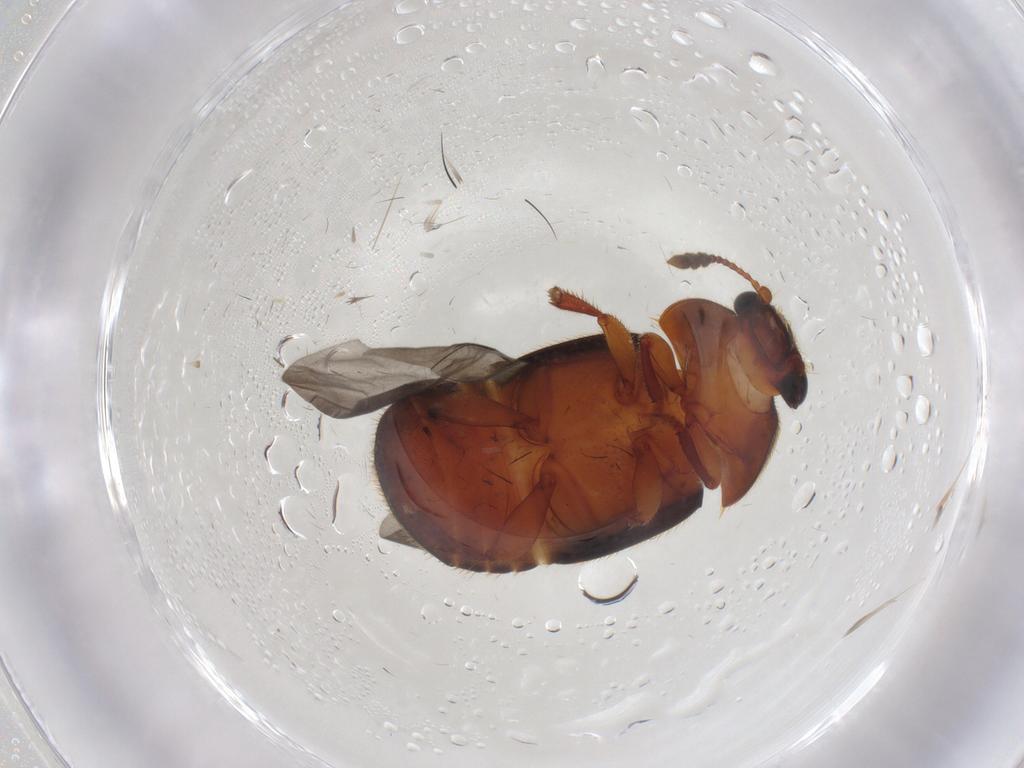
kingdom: Animalia
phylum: Arthropoda
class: Insecta
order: Coleoptera
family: Nitidulidae
